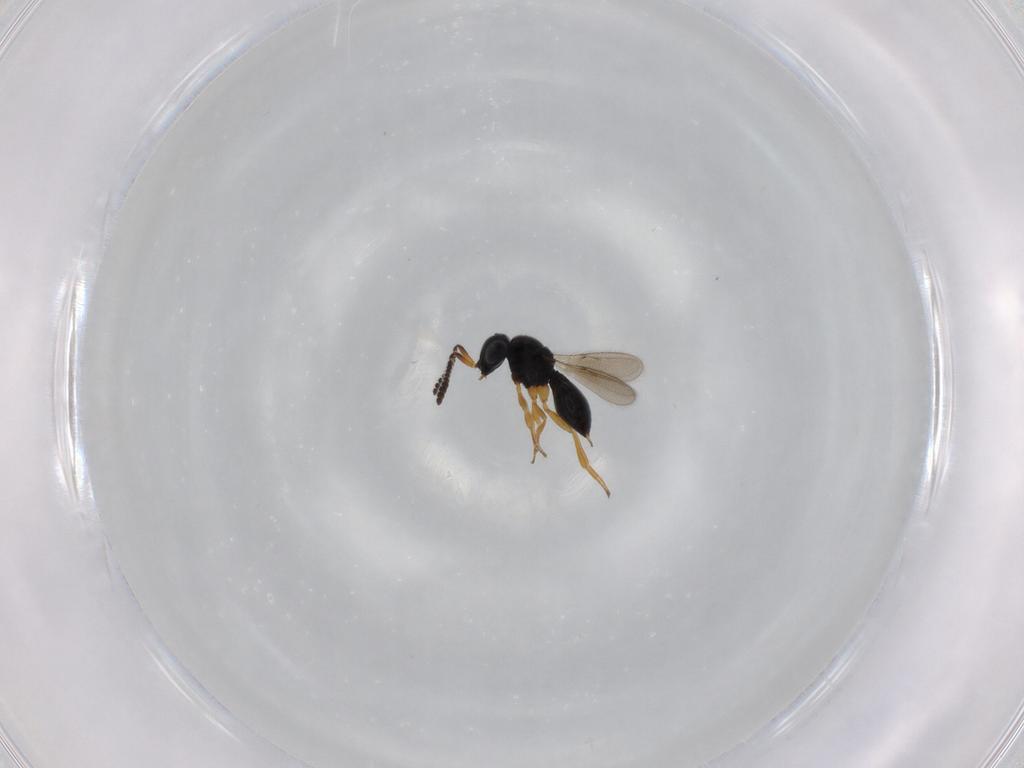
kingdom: Animalia
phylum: Arthropoda
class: Insecta
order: Hymenoptera
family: Scelionidae
